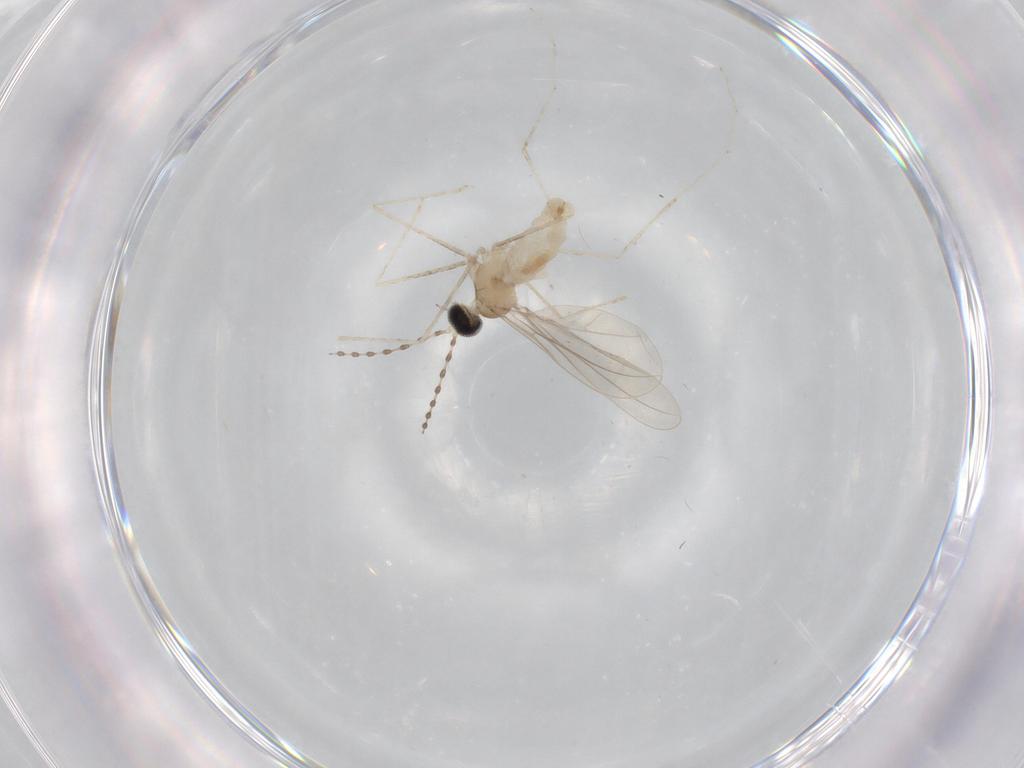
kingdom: Animalia
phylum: Arthropoda
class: Insecta
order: Diptera
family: Cecidomyiidae
